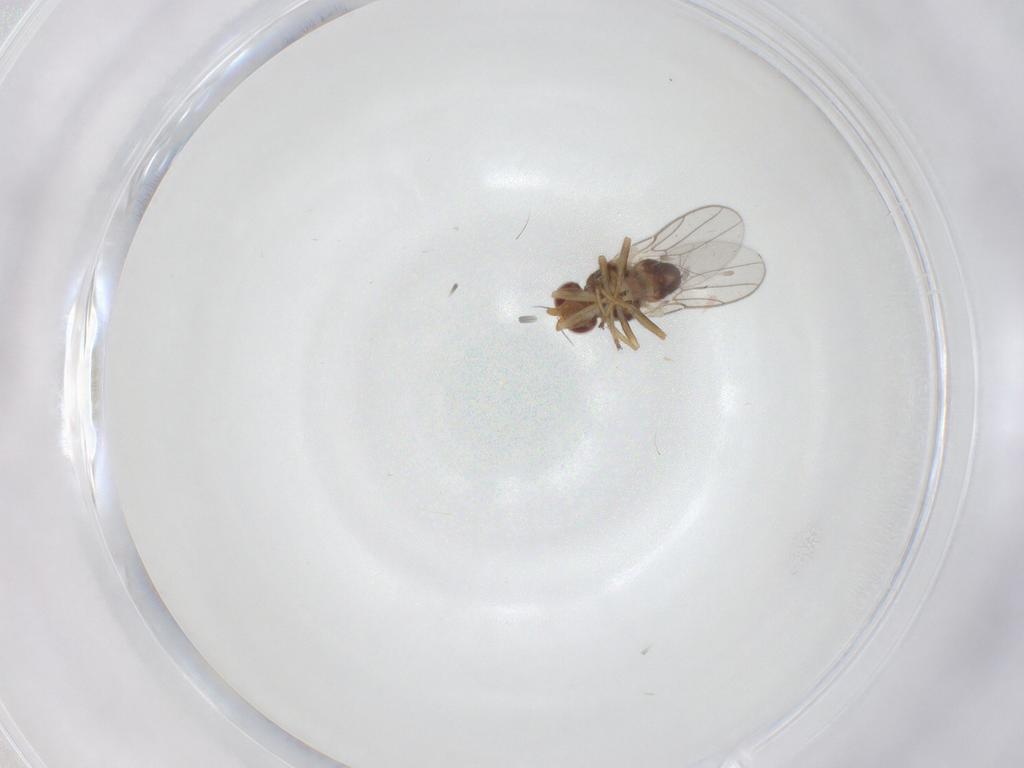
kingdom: Animalia
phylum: Arthropoda
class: Insecta
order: Diptera
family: Chloropidae
